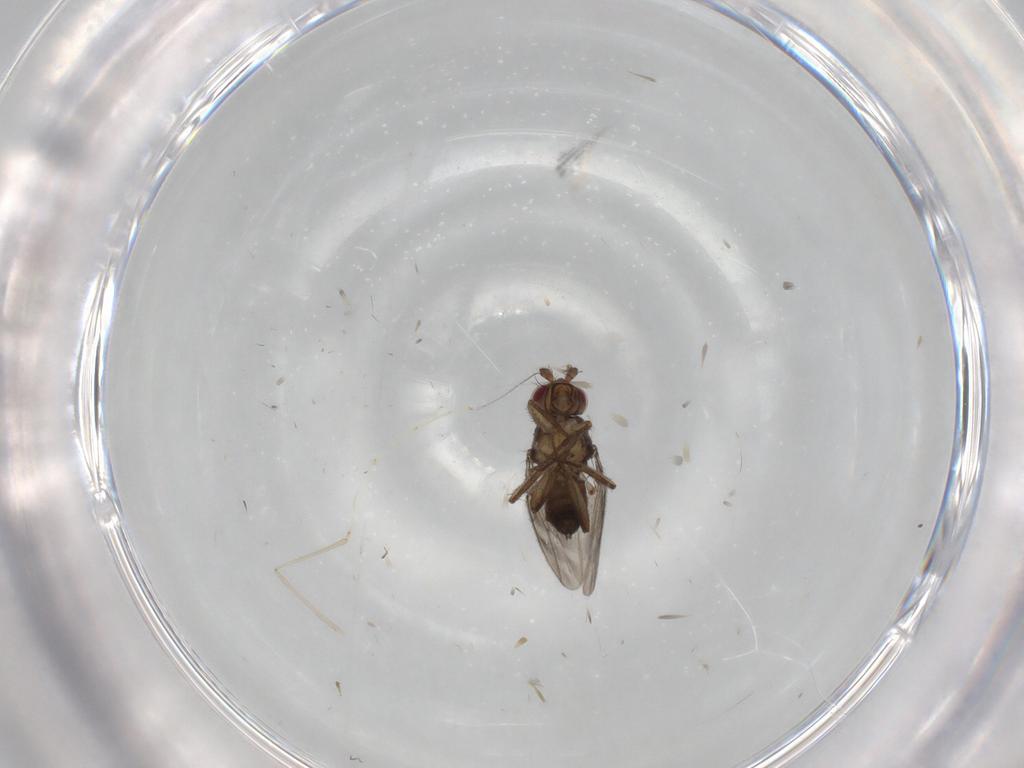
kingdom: Animalia
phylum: Arthropoda
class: Insecta
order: Diptera
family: Sphaeroceridae
